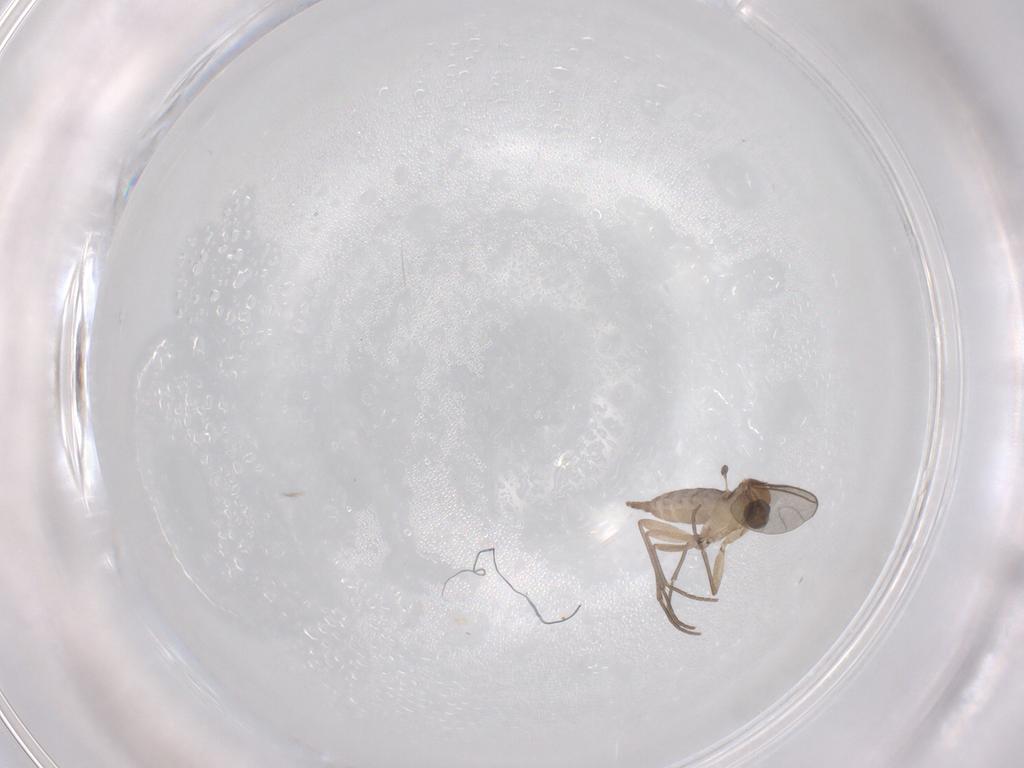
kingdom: Animalia
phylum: Arthropoda
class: Insecta
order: Diptera
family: Sciaridae
